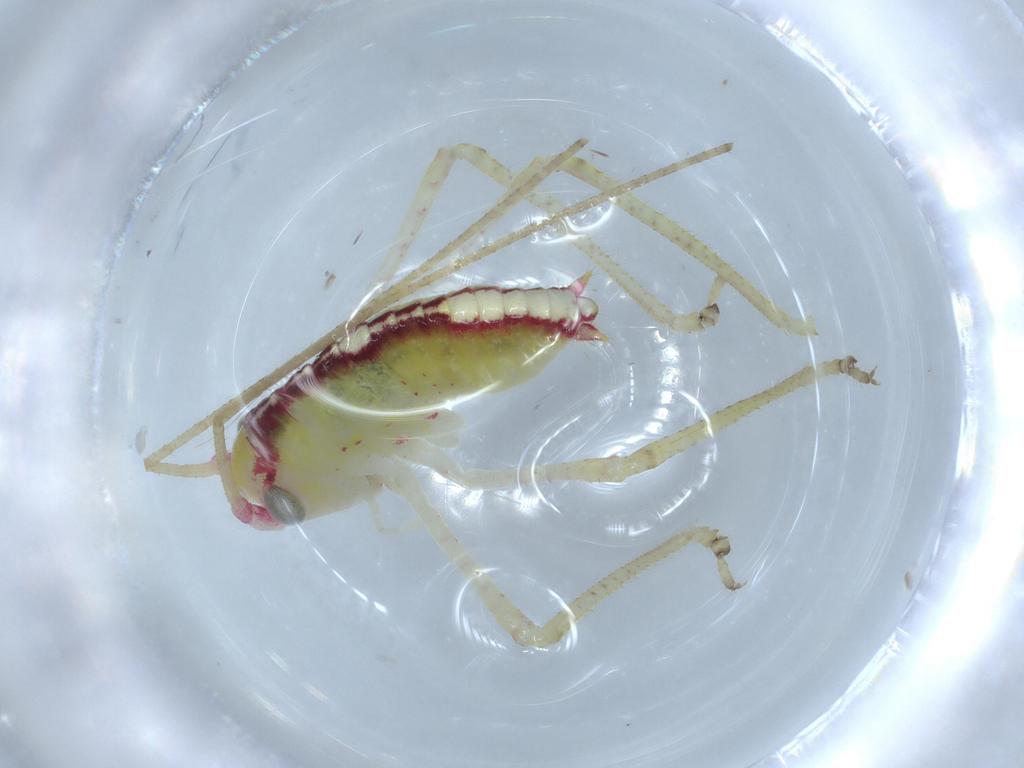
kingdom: Animalia
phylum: Arthropoda
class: Insecta
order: Orthoptera
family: Tettigoniidae
